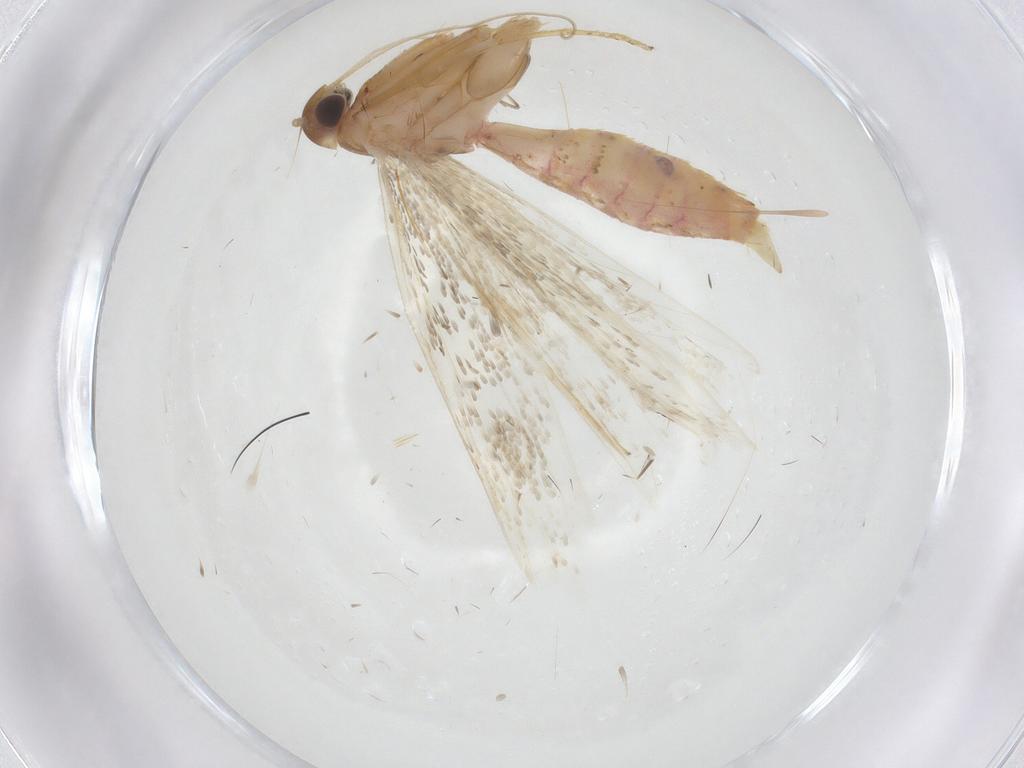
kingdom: Animalia
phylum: Arthropoda
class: Insecta
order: Lepidoptera
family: Crambidae
